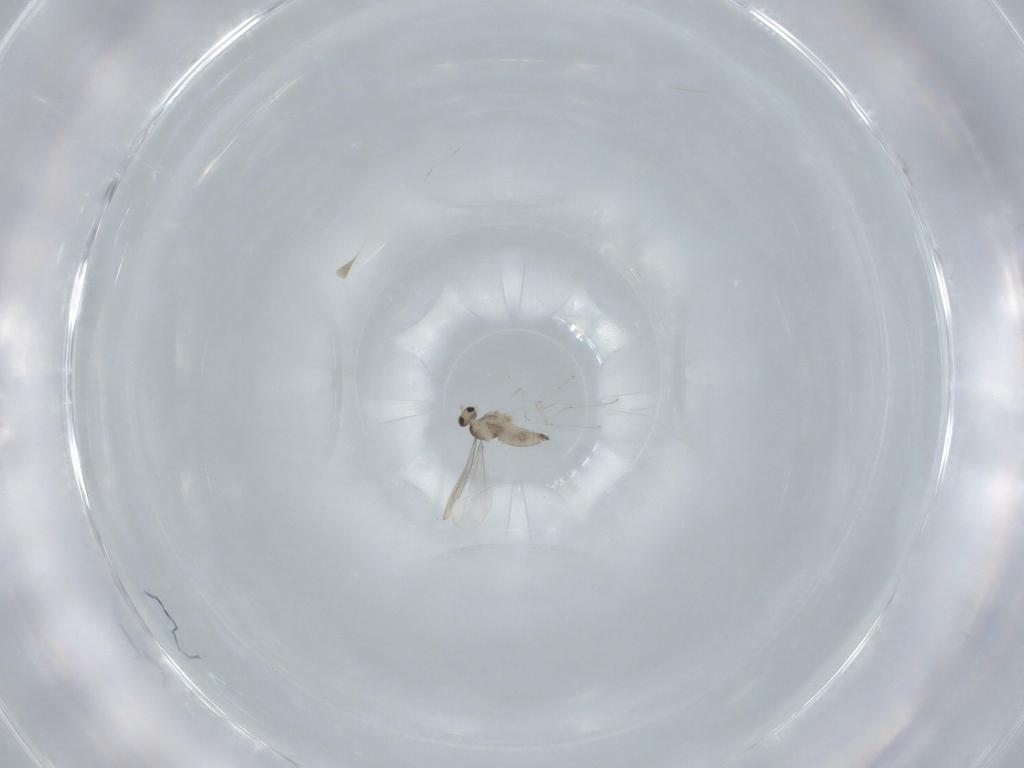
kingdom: Animalia
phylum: Arthropoda
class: Insecta
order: Diptera
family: Cecidomyiidae
